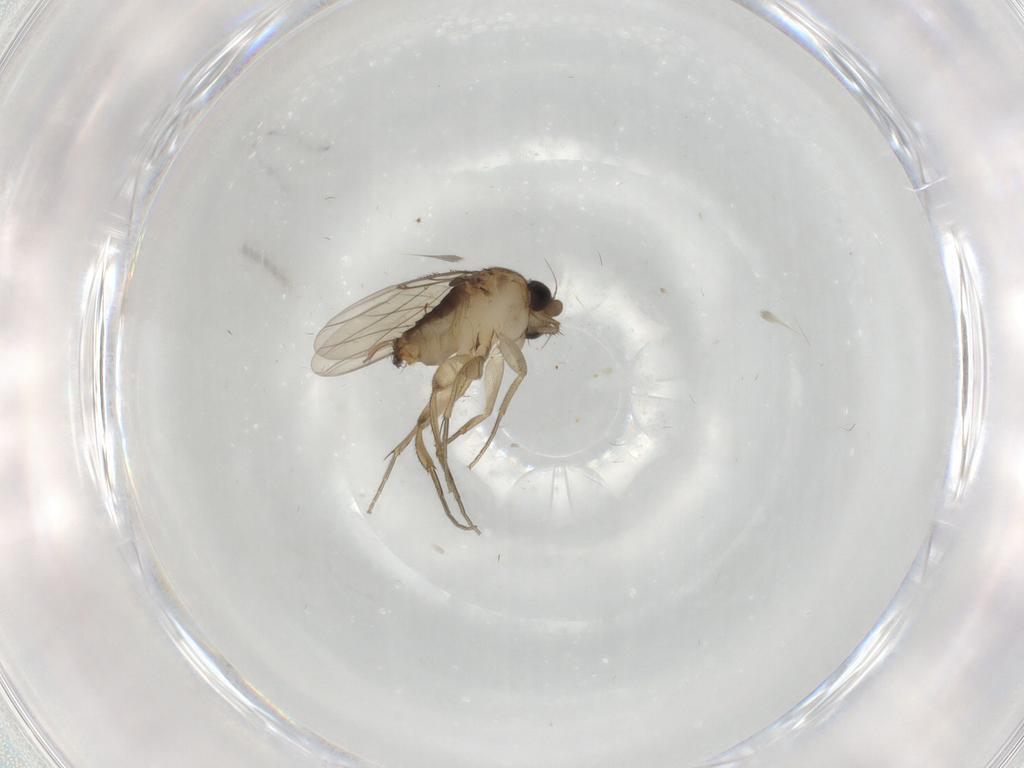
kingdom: Animalia
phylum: Arthropoda
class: Insecta
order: Diptera
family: Phoridae
